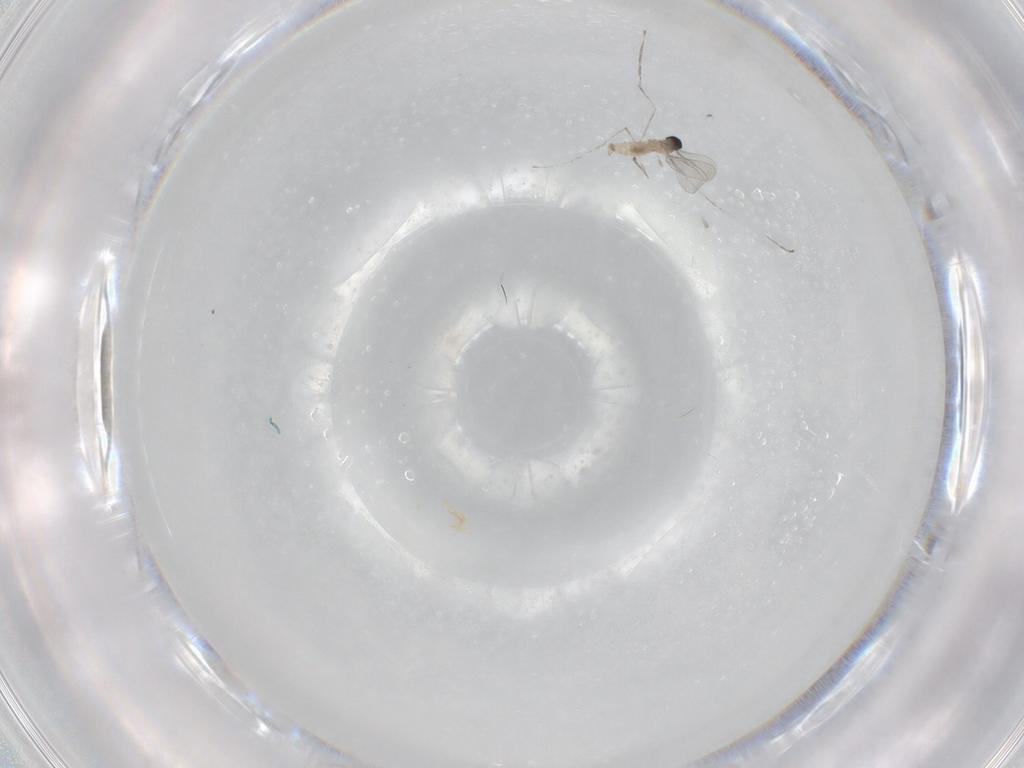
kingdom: Animalia
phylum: Arthropoda
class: Insecta
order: Diptera
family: Cecidomyiidae
